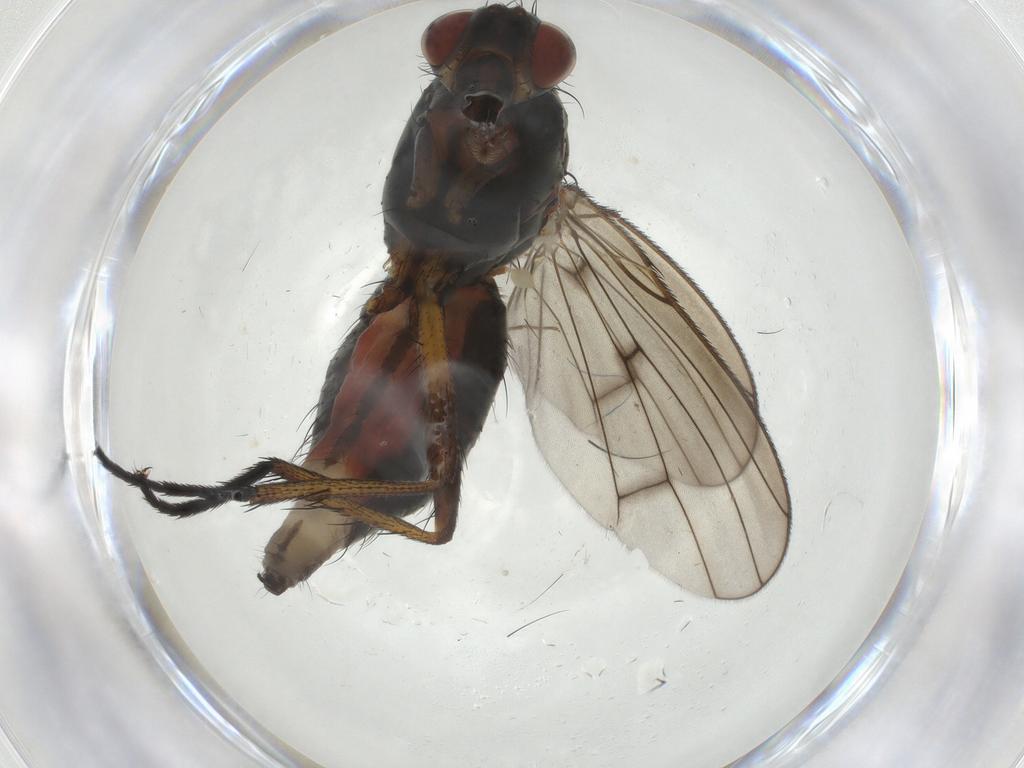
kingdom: Animalia
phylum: Arthropoda
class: Insecta
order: Diptera
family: Anthomyiidae
